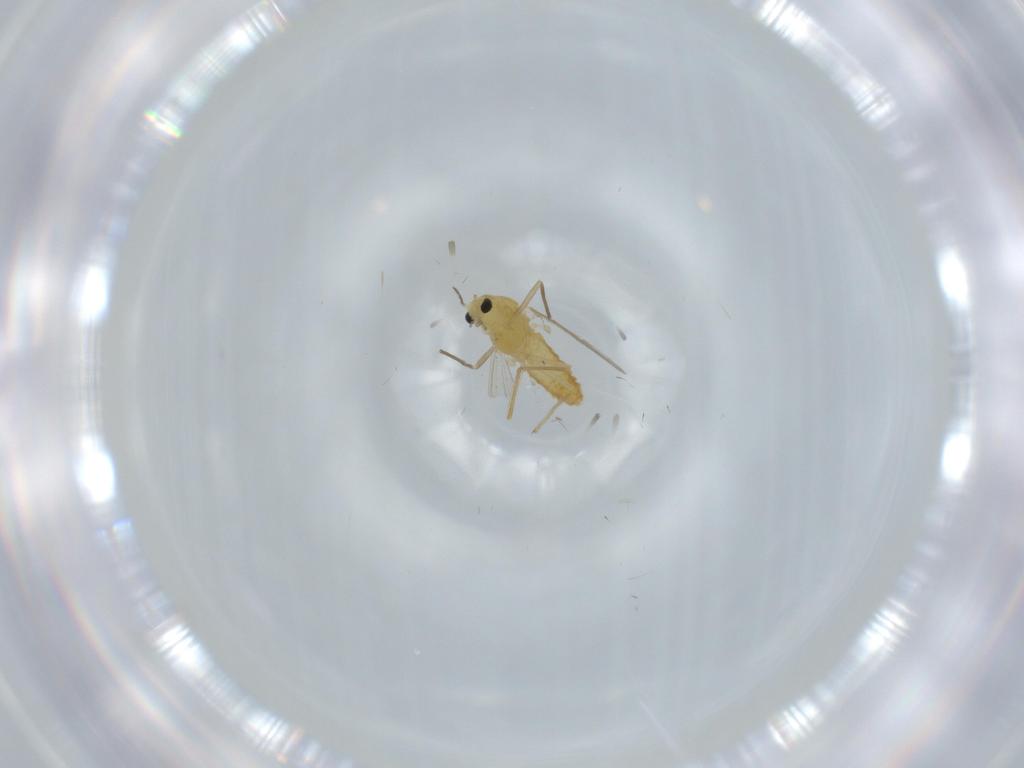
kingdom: Animalia
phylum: Arthropoda
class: Insecta
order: Diptera
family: Chironomidae
